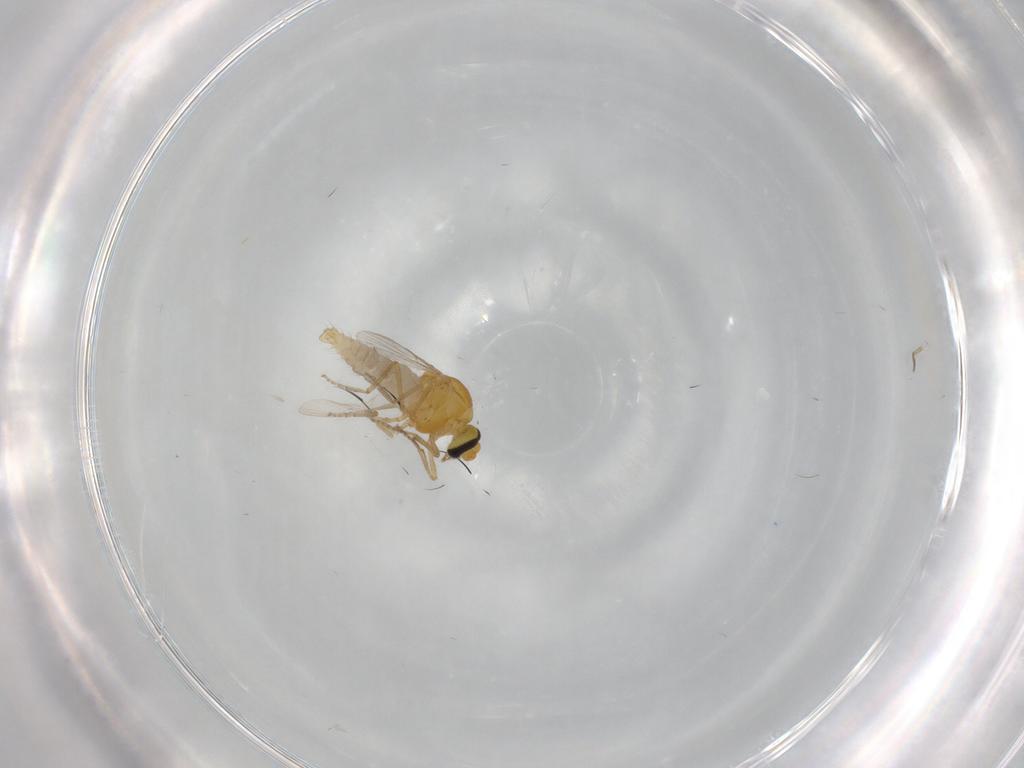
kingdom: Animalia
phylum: Arthropoda
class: Insecta
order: Diptera
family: Ceratopogonidae
